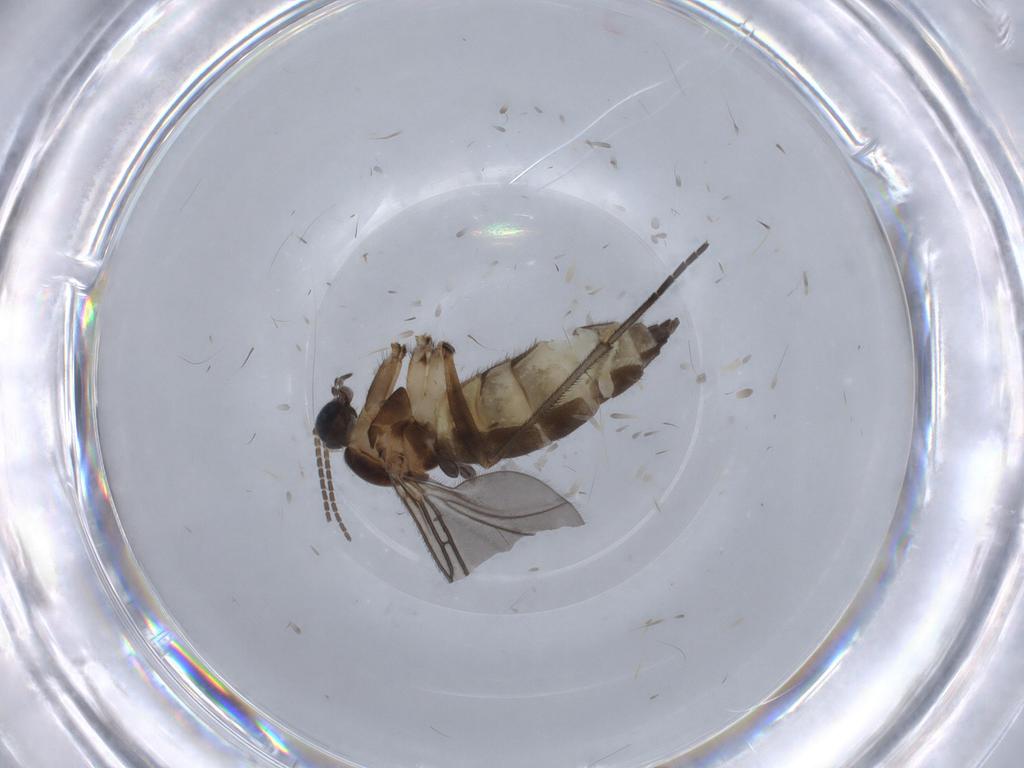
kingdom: Animalia
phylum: Arthropoda
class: Insecta
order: Diptera
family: Sciaridae
